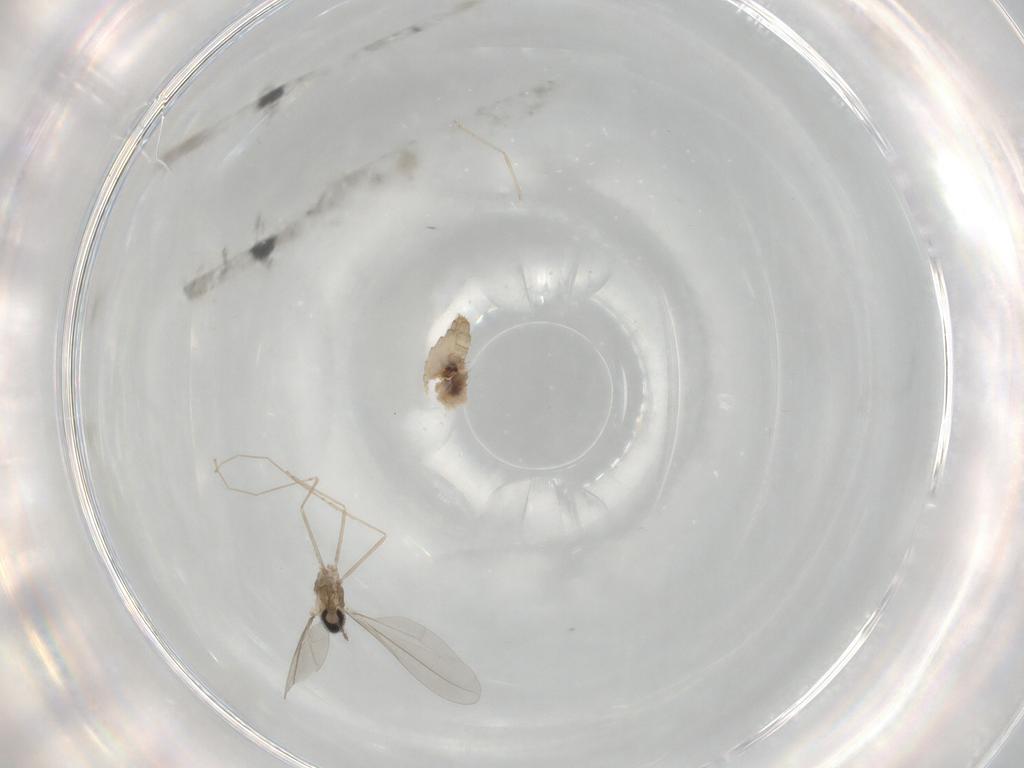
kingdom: Animalia
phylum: Arthropoda
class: Insecta
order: Diptera
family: Cecidomyiidae
